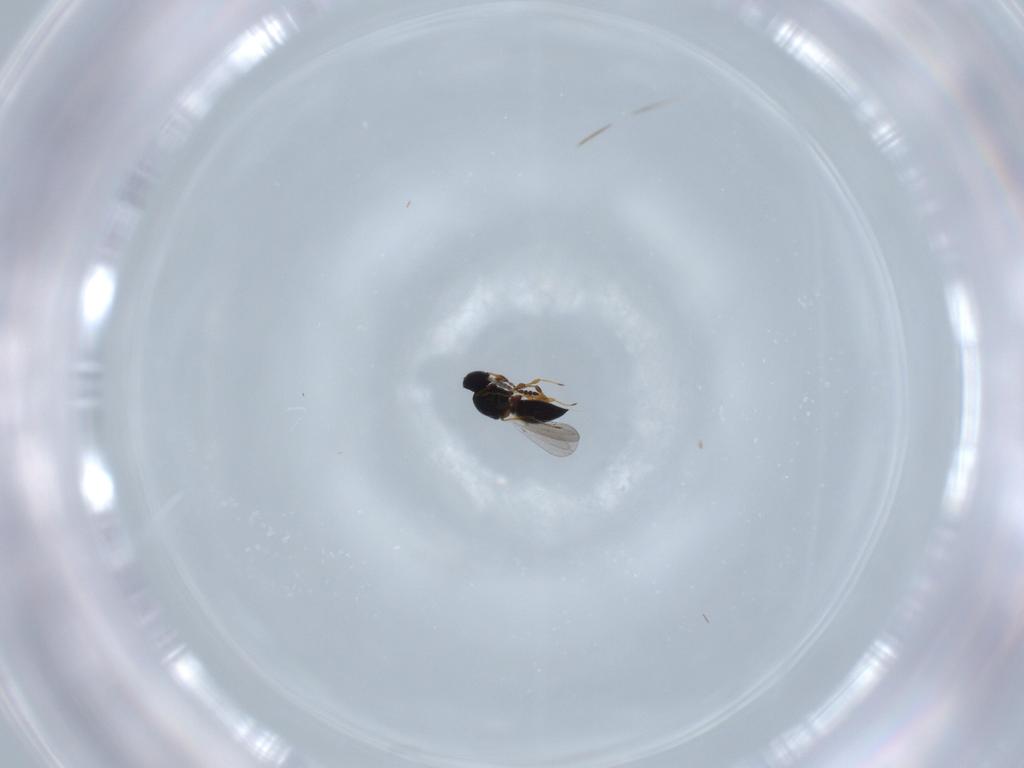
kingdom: Animalia
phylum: Arthropoda
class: Insecta
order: Hymenoptera
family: Platygastridae
